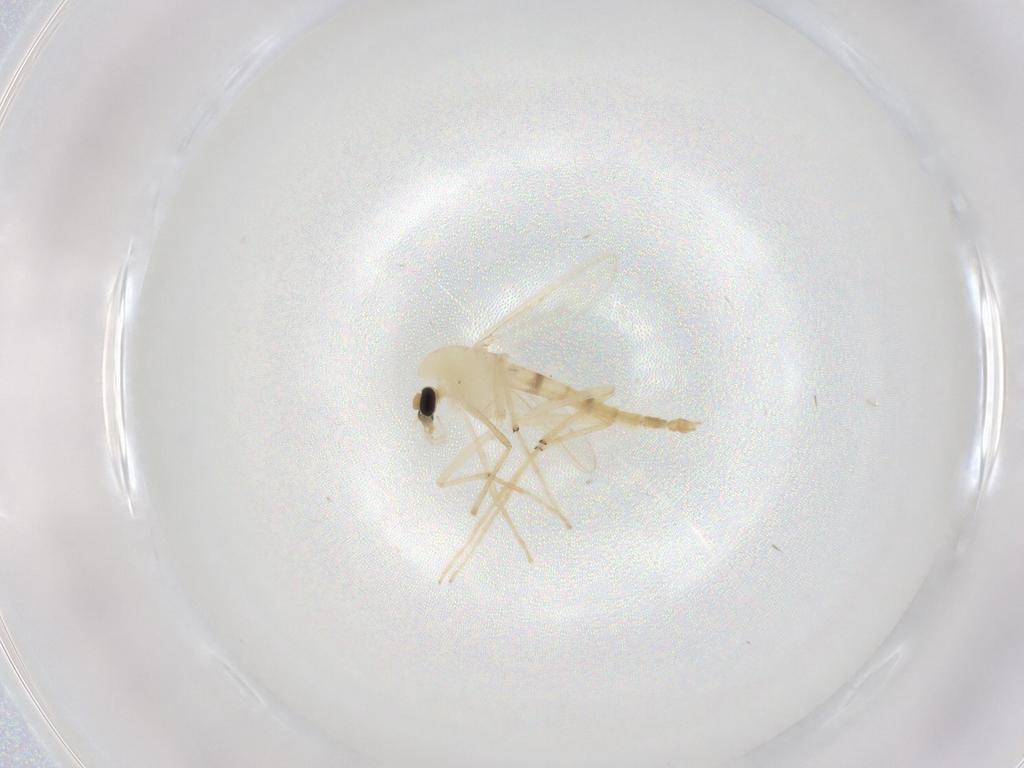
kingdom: Animalia
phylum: Arthropoda
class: Insecta
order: Diptera
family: Chironomidae
